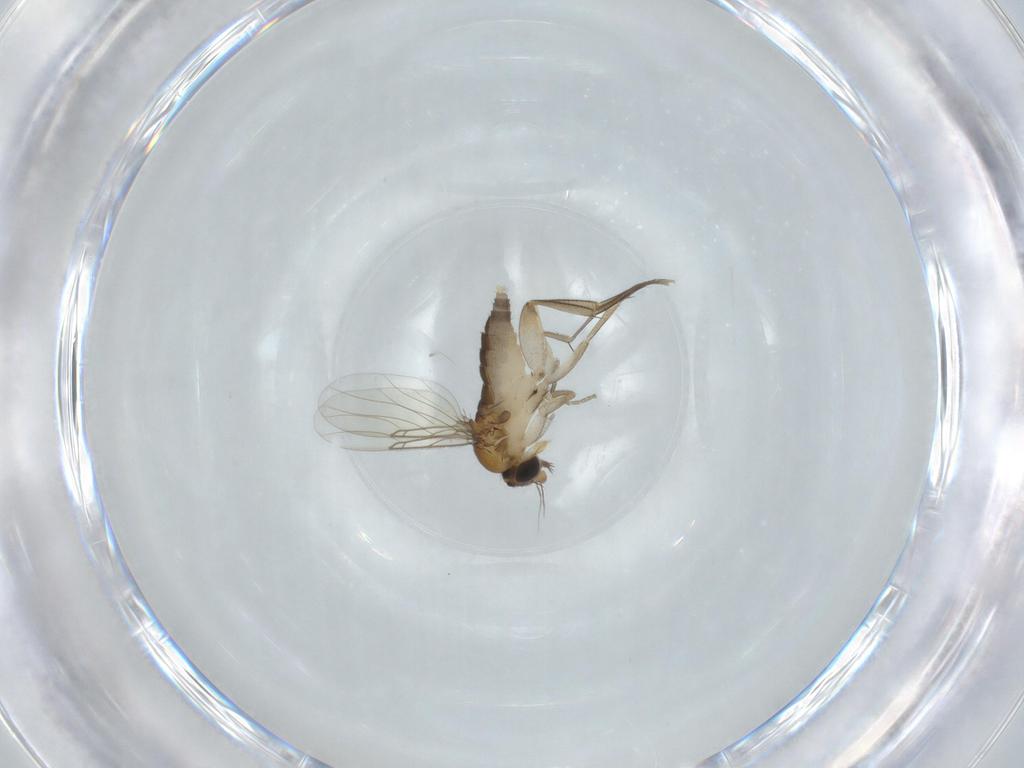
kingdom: Animalia
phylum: Arthropoda
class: Insecta
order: Diptera
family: Phoridae
